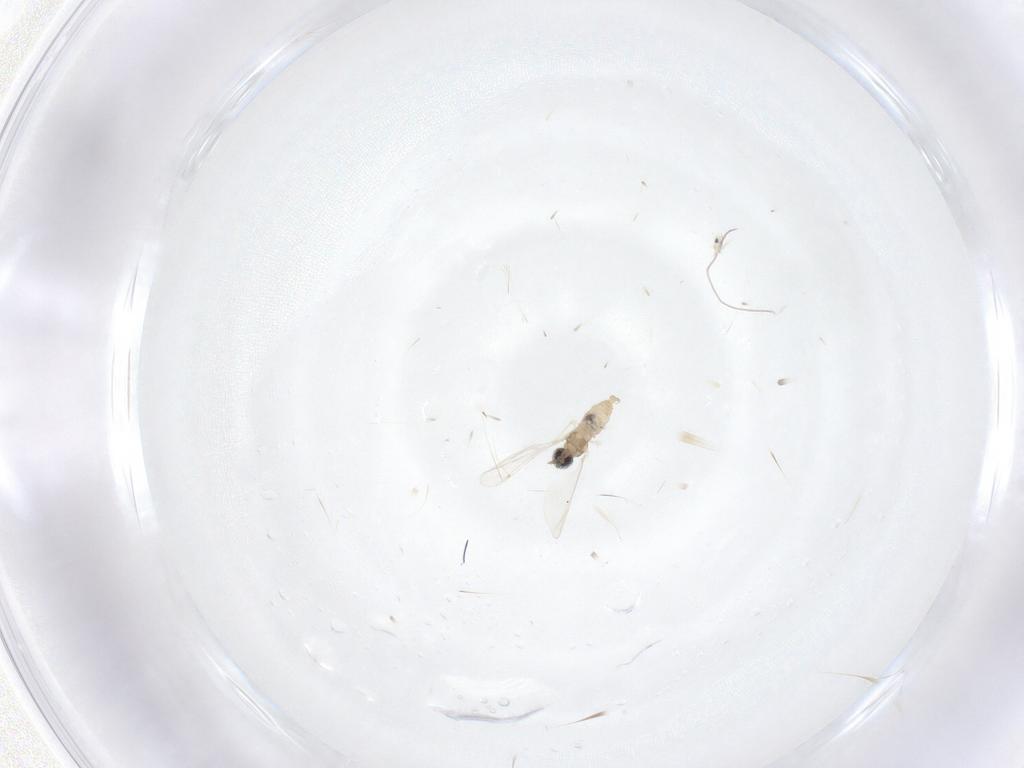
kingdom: Animalia
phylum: Arthropoda
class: Insecta
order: Diptera
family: Cecidomyiidae
